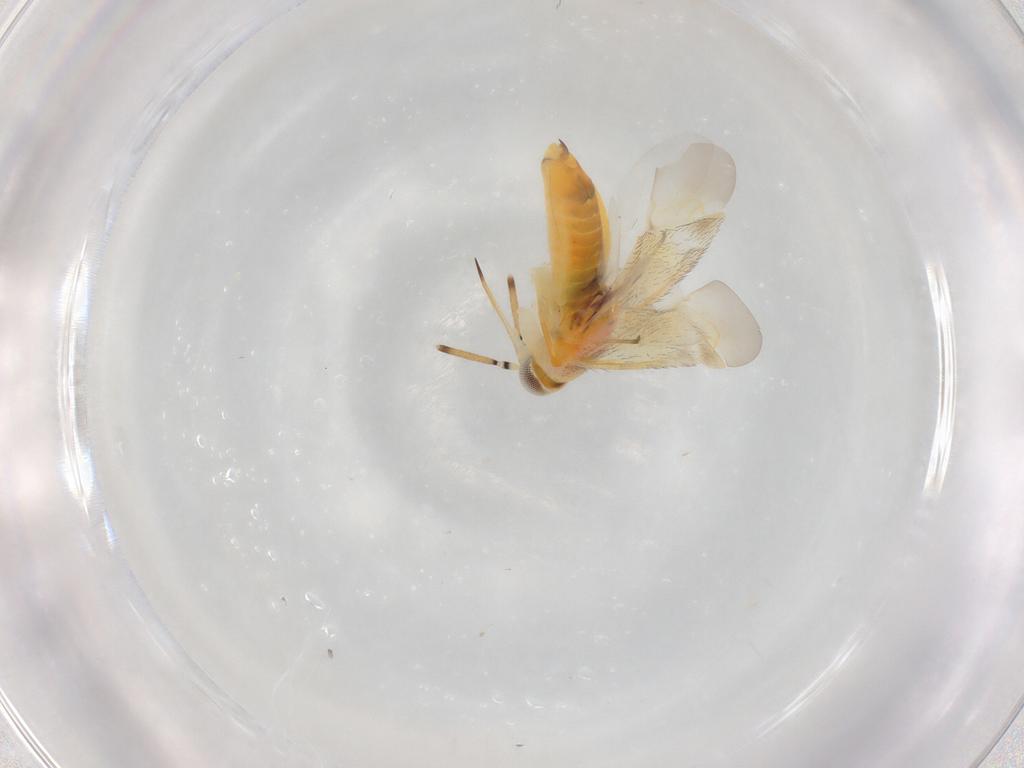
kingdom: Animalia
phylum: Arthropoda
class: Insecta
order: Hemiptera
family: Miridae
